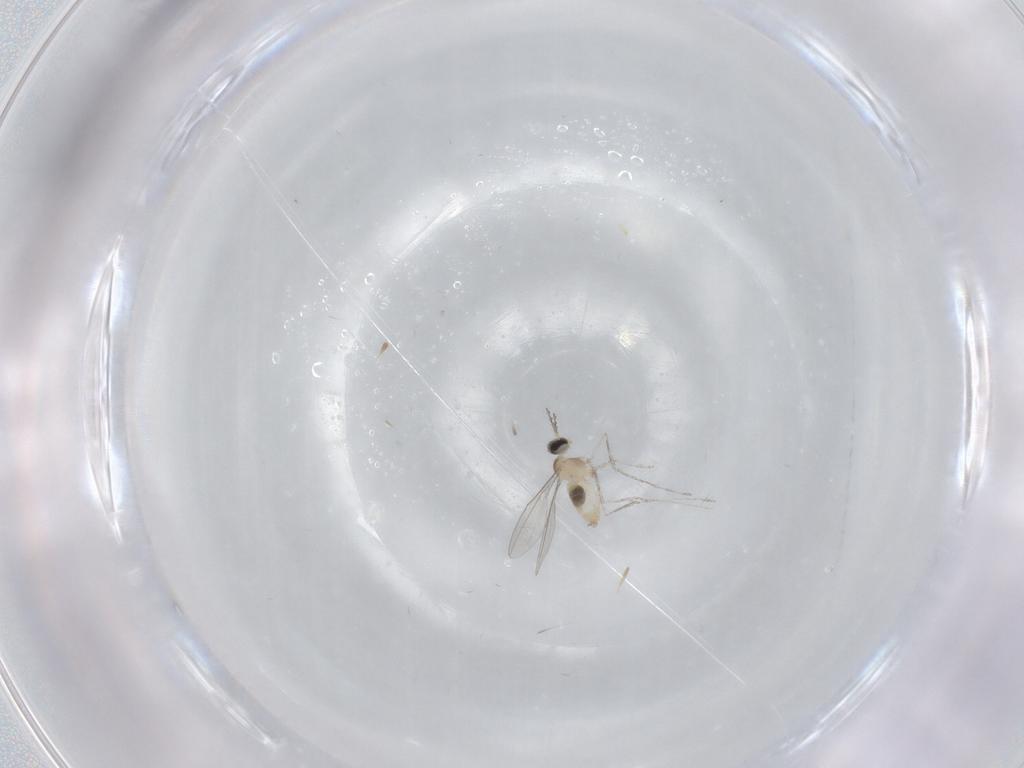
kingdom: Animalia
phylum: Arthropoda
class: Insecta
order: Diptera
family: Cecidomyiidae
